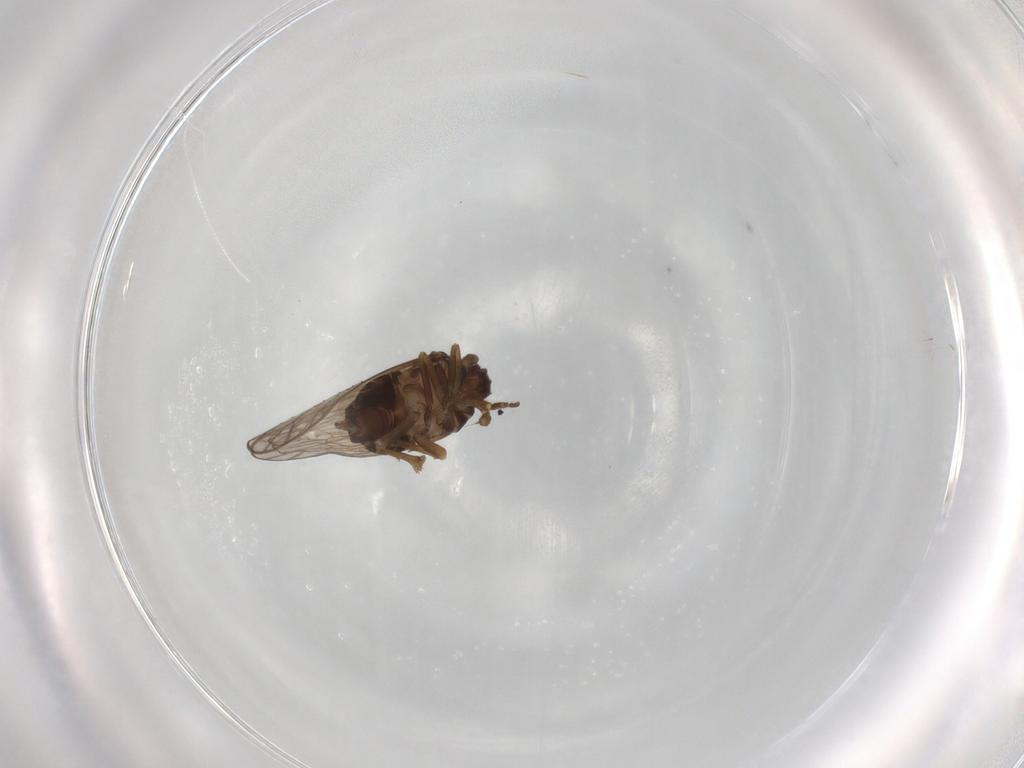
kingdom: Animalia
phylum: Arthropoda
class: Insecta
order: Hemiptera
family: Delphacidae
